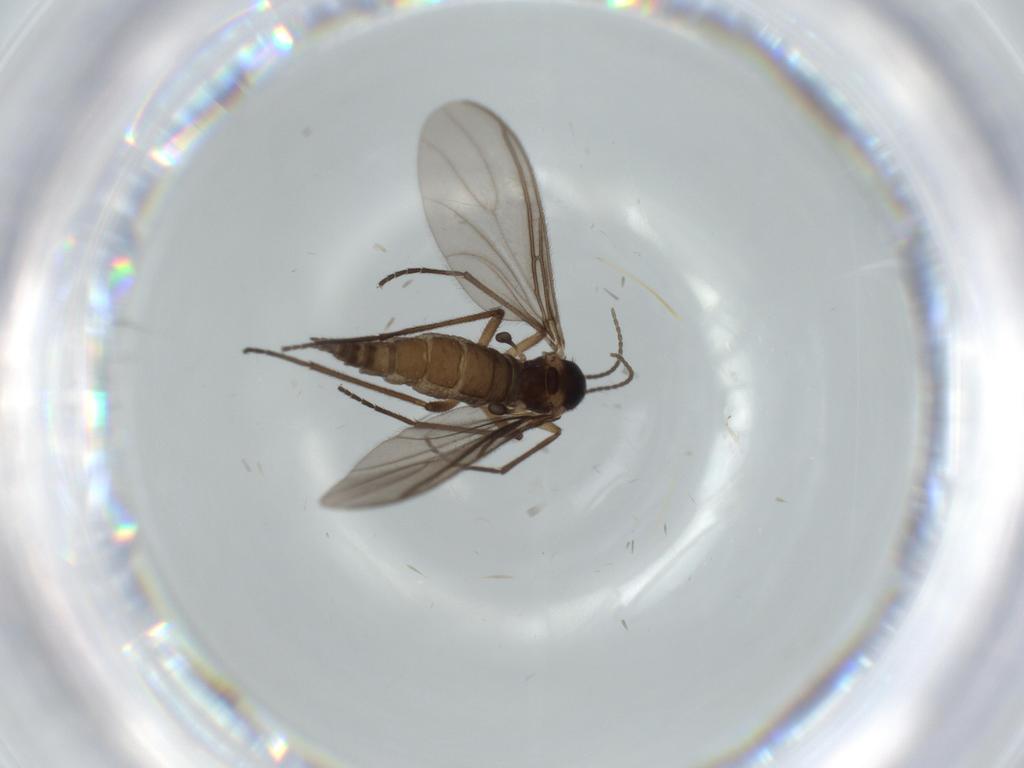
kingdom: Animalia
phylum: Arthropoda
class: Insecta
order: Diptera
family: Sciaridae
